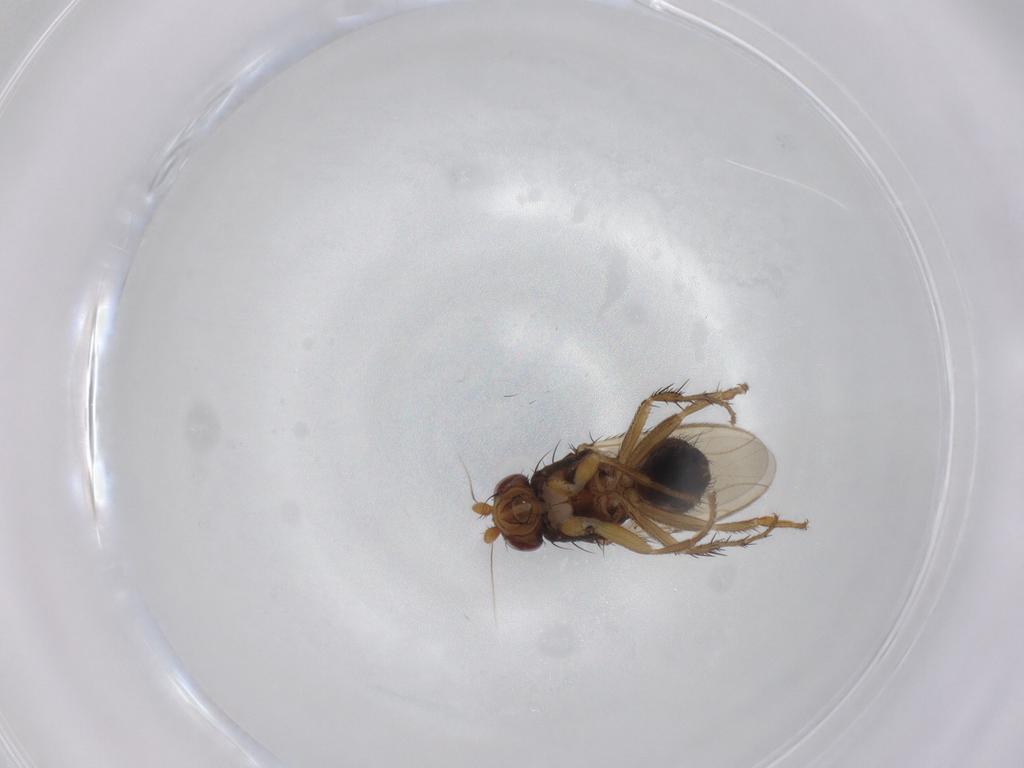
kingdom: Animalia
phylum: Arthropoda
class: Insecta
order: Diptera
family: Sphaeroceridae
